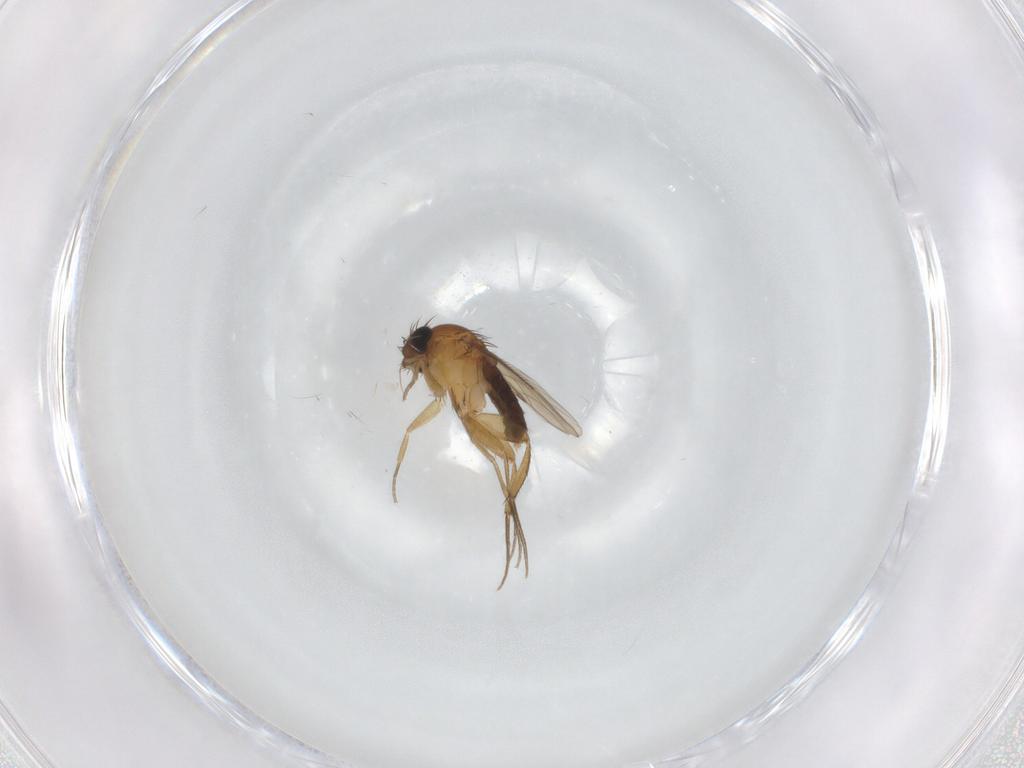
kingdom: Animalia
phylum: Arthropoda
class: Insecta
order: Diptera
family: Phoridae
